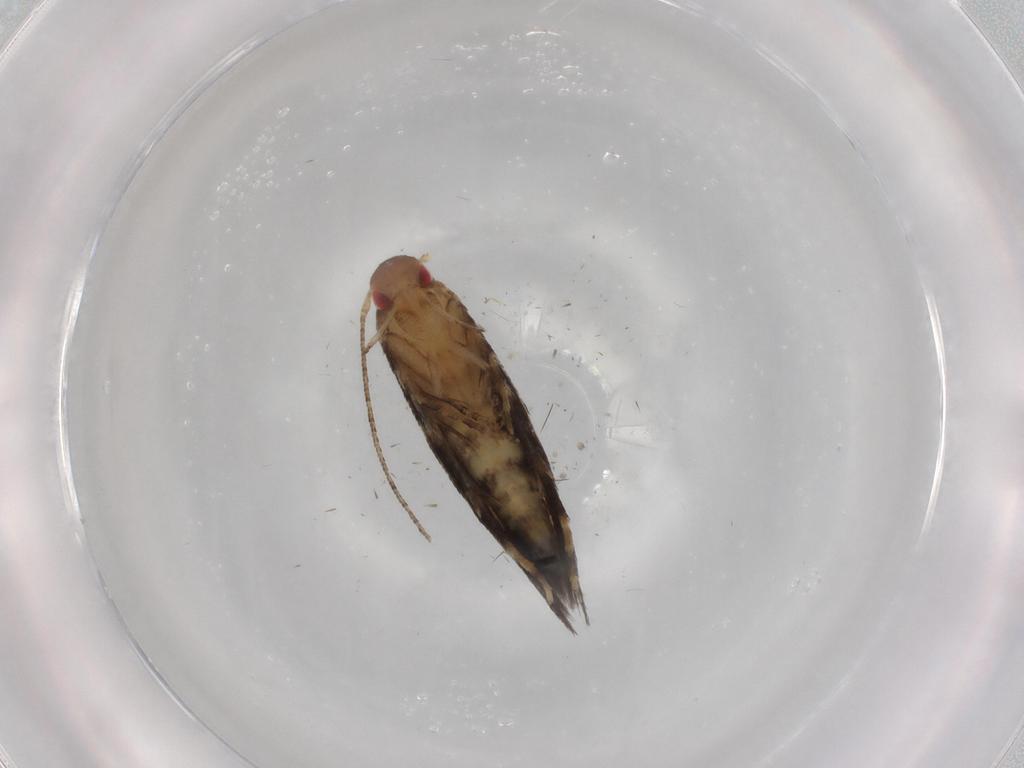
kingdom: Animalia
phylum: Arthropoda
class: Insecta
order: Lepidoptera
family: Momphidae
